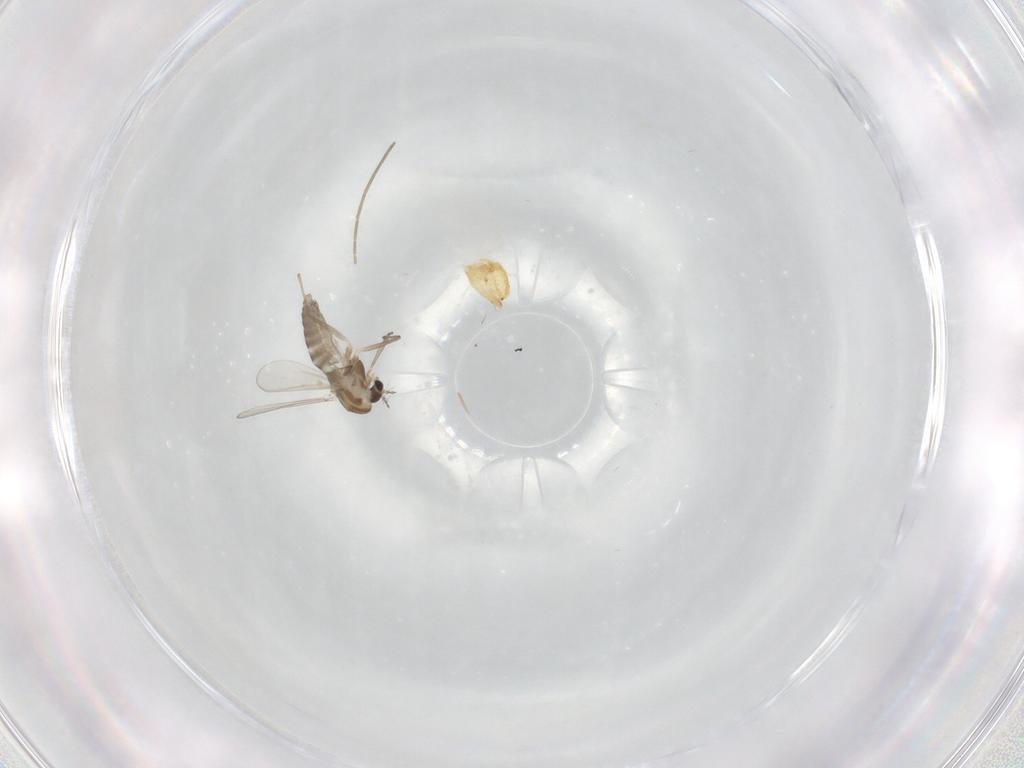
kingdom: Animalia
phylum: Arthropoda
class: Insecta
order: Diptera
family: Chironomidae
